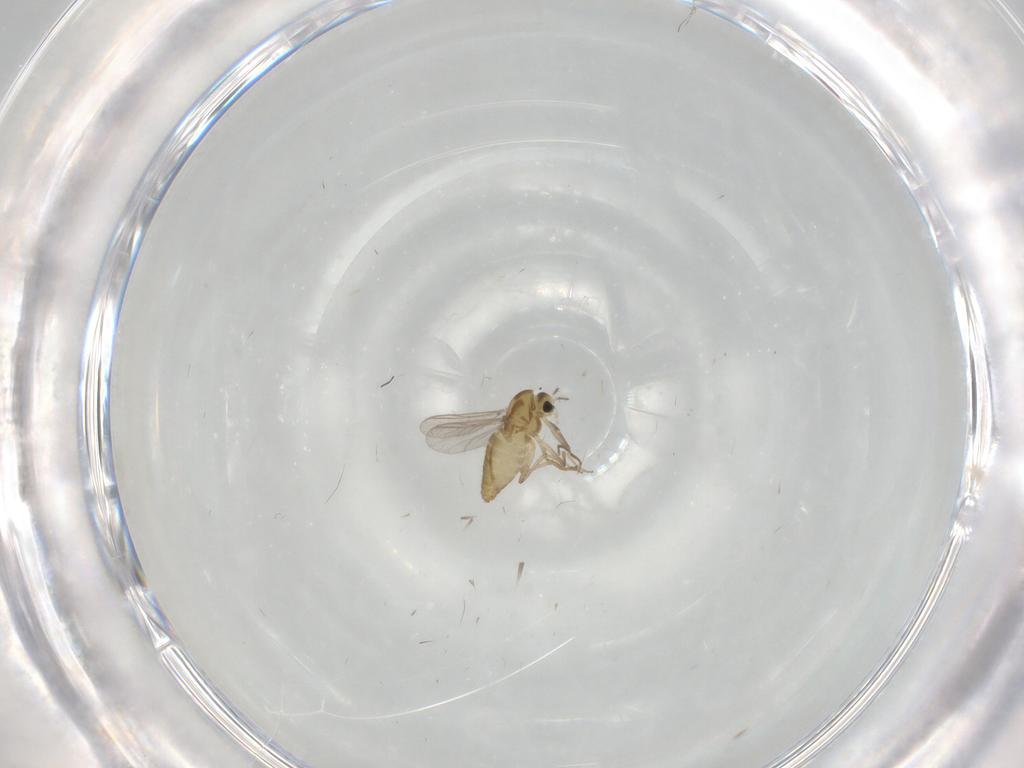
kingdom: Animalia
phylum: Arthropoda
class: Insecta
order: Diptera
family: Chironomidae
